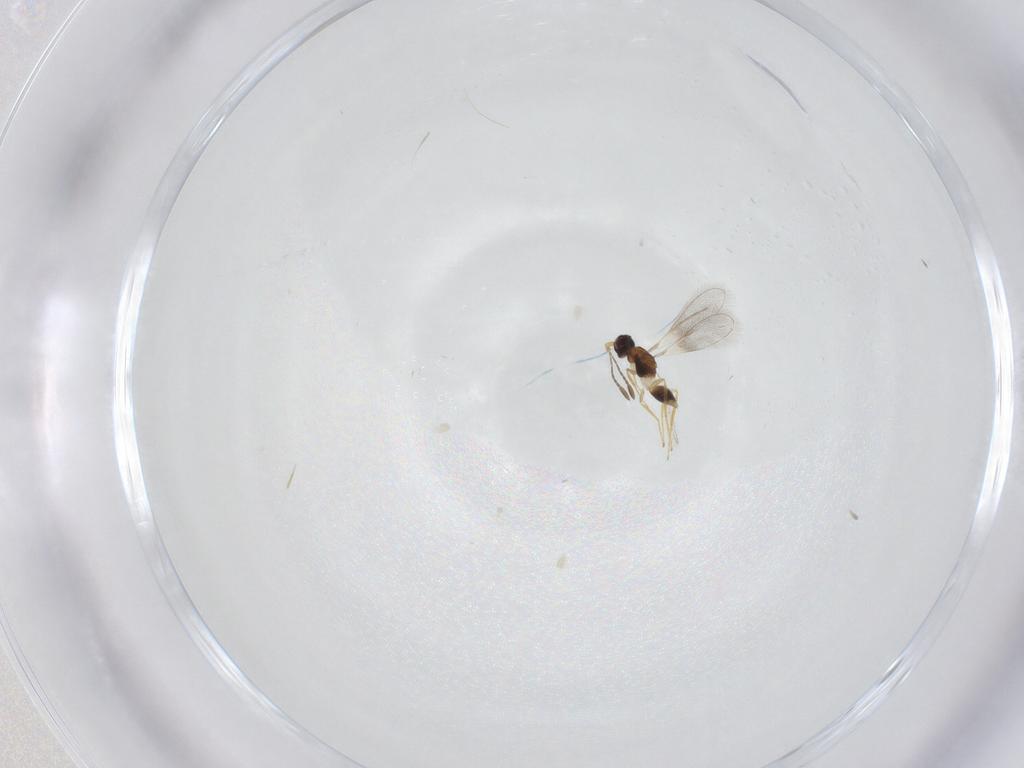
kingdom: Animalia
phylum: Arthropoda
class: Insecta
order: Hymenoptera
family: Mymaridae
